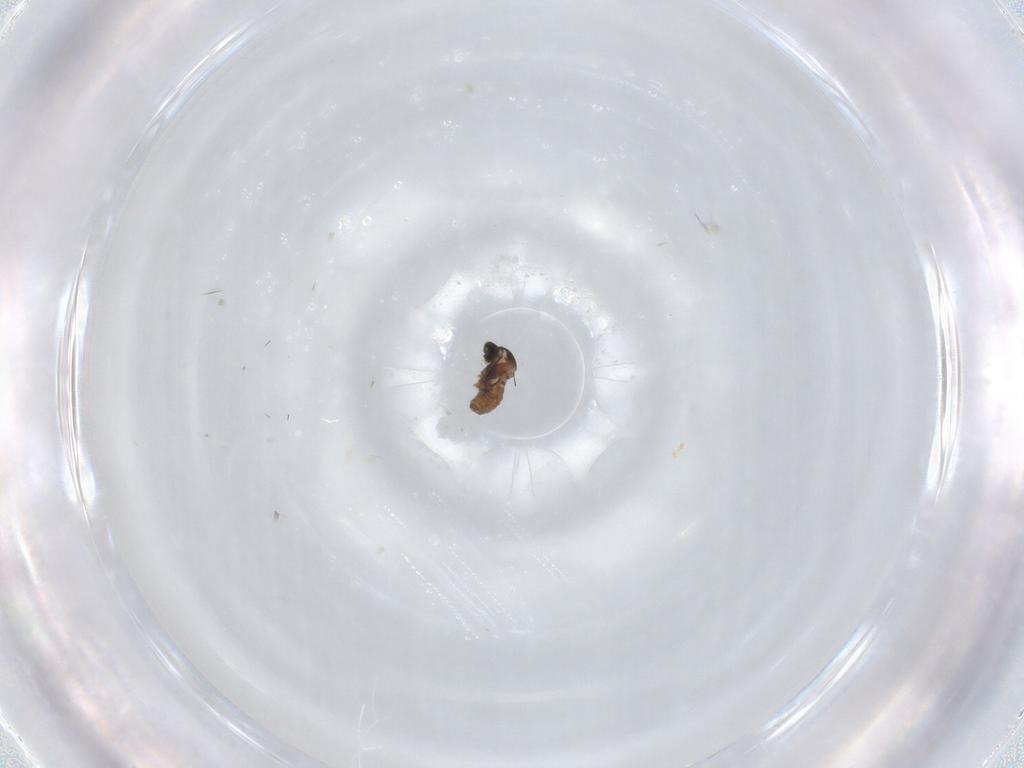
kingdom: Animalia
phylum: Arthropoda
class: Insecta
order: Diptera
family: Cecidomyiidae
